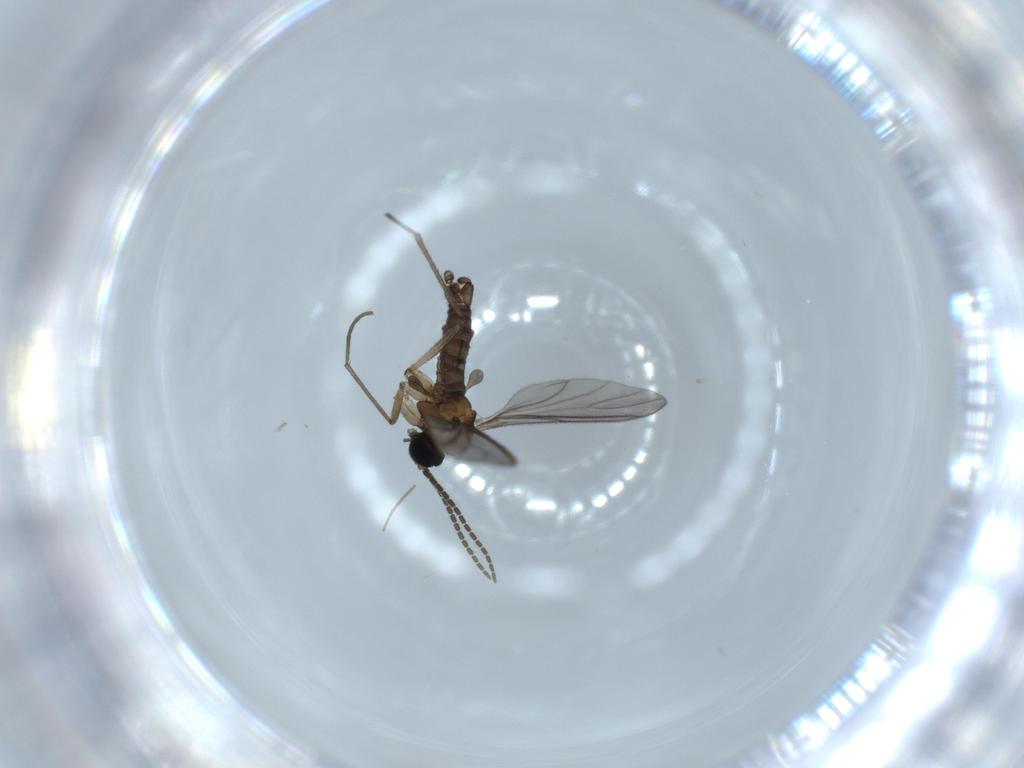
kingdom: Animalia
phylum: Arthropoda
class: Insecta
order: Diptera
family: Sciaridae
